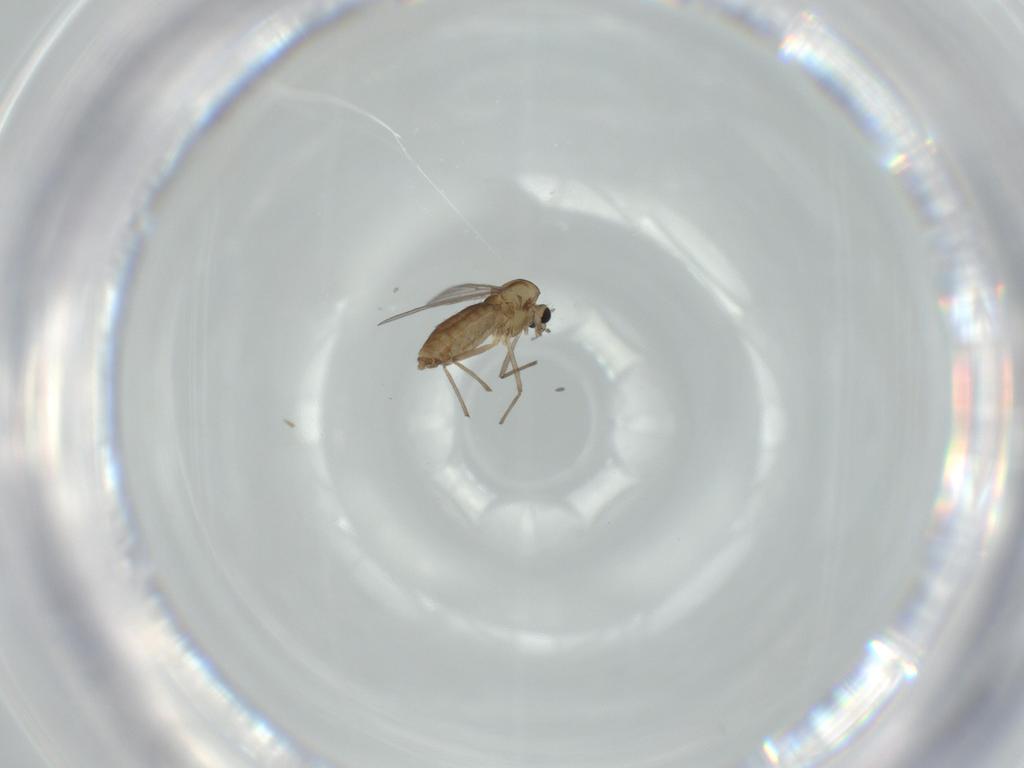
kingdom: Animalia
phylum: Arthropoda
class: Insecta
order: Diptera
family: Chironomidae
